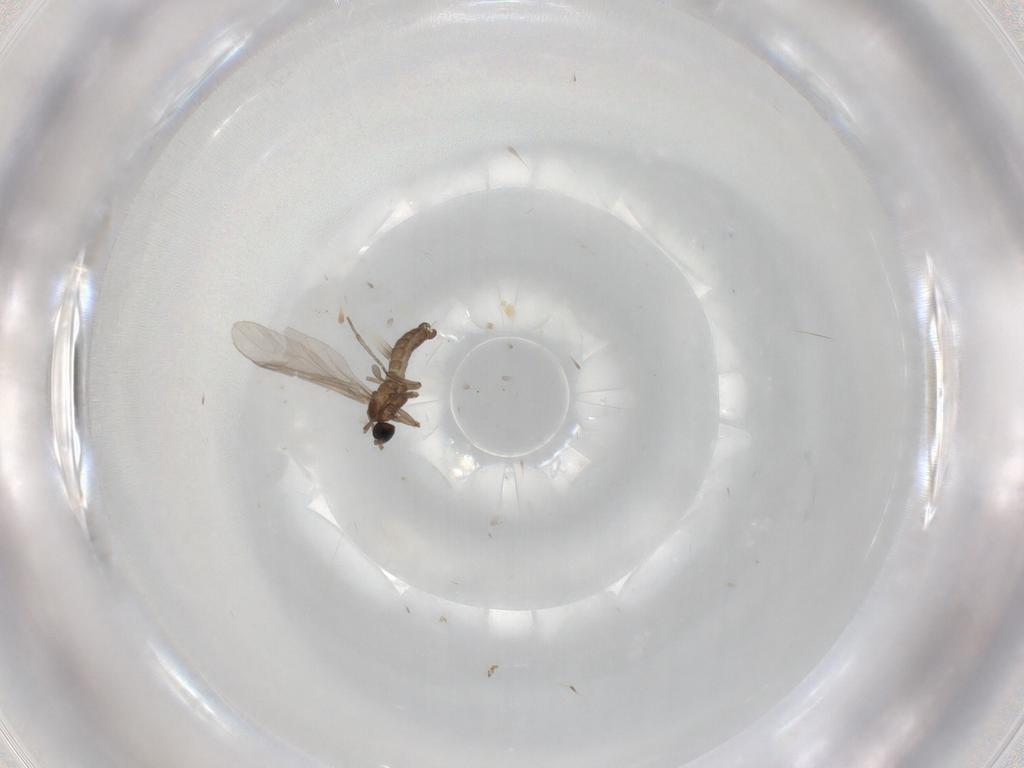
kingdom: Animalia
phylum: Arthropoda
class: Insecta
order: Diptera
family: Sciaridae
